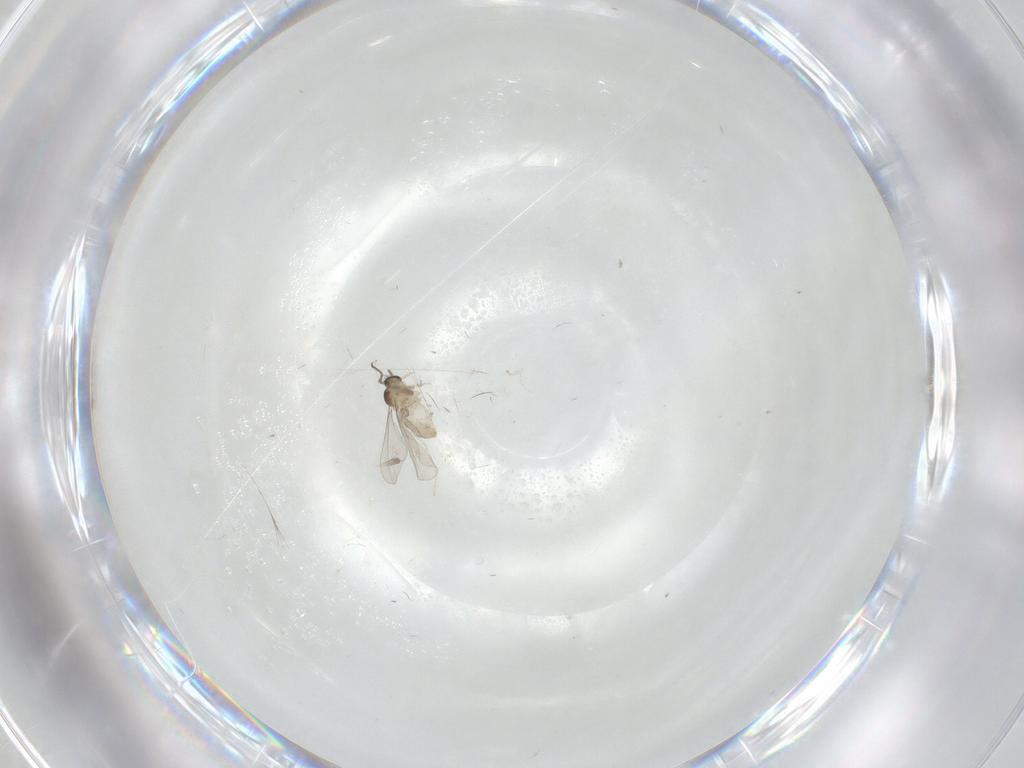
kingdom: Animalia
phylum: Arthropoda
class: Insecta
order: Diptera
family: Cecidomyiidae
